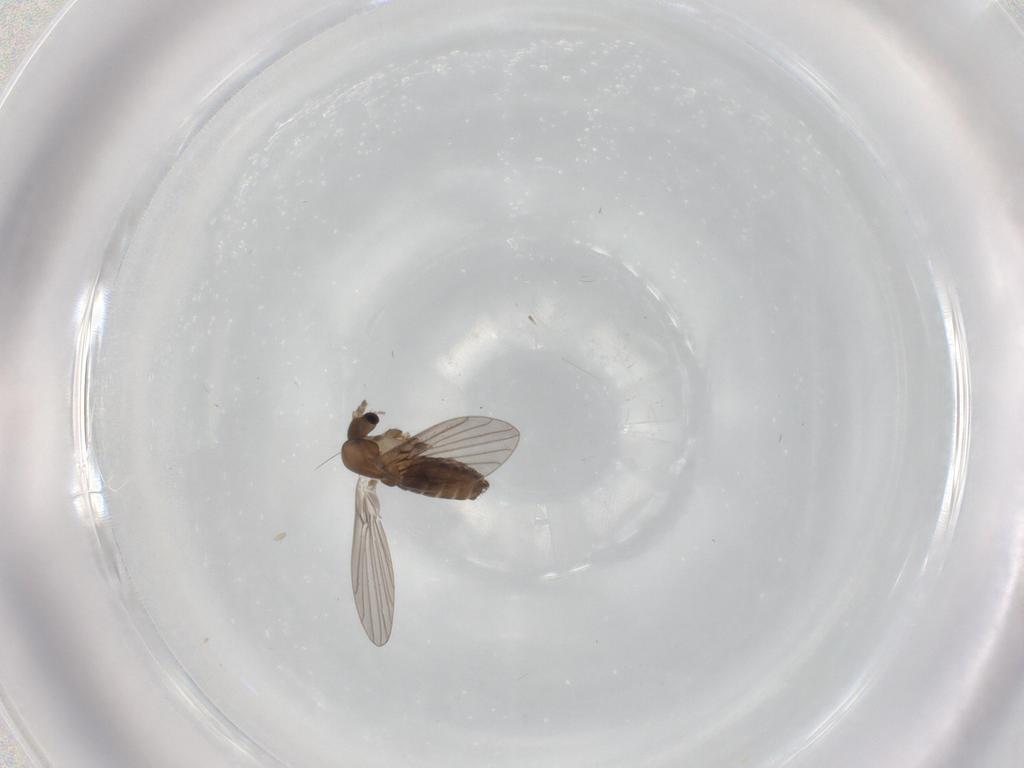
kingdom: Animalia
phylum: Arthropoda
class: Insecta
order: Diptera
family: Psychodidae
